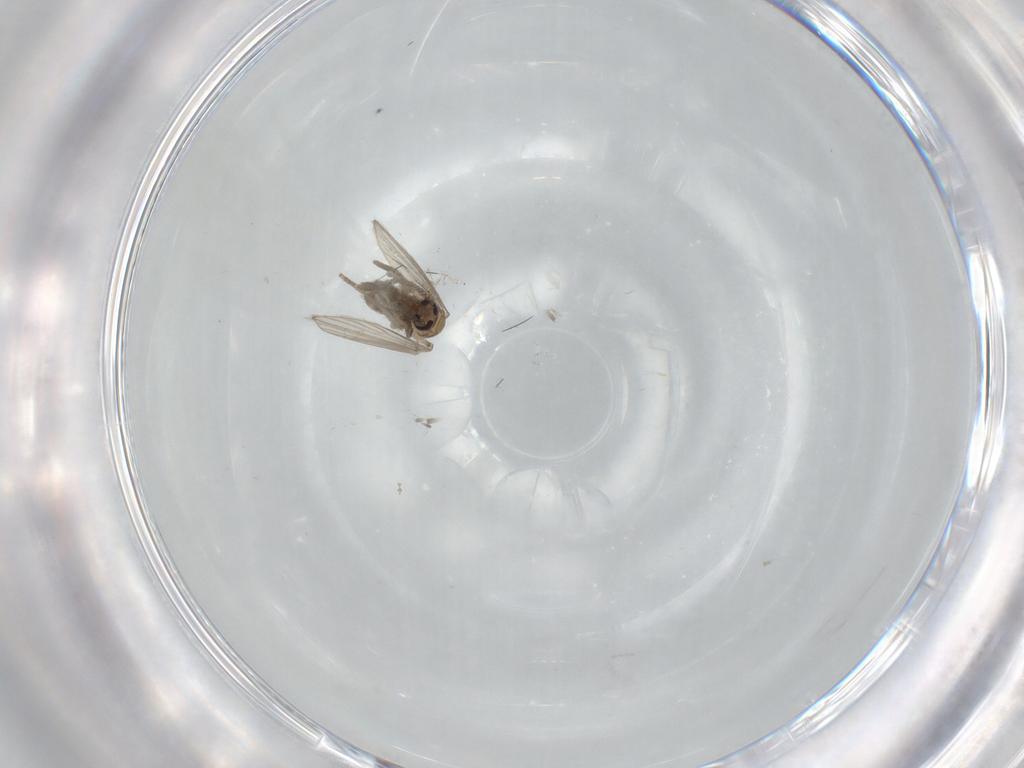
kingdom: Animalia
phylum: Arthropoda
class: Insecta
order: Diptera
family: Psychodidae
